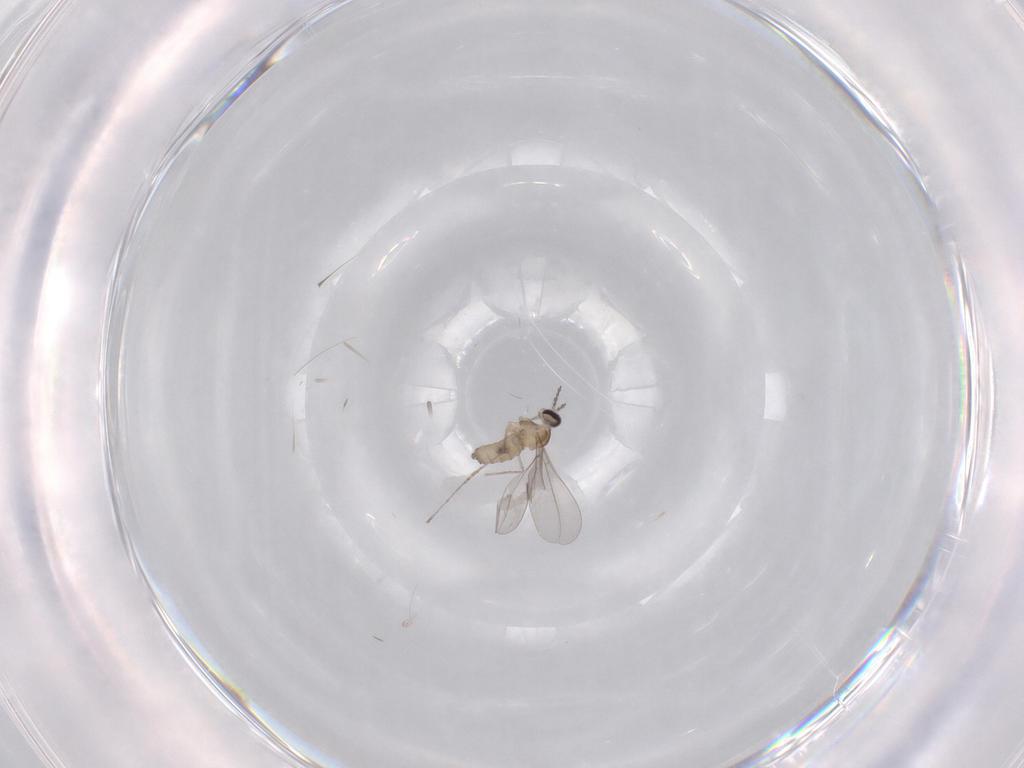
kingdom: Animalia
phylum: Arthropoda
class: Insecta
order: Diptera
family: Cecidomyiidae
